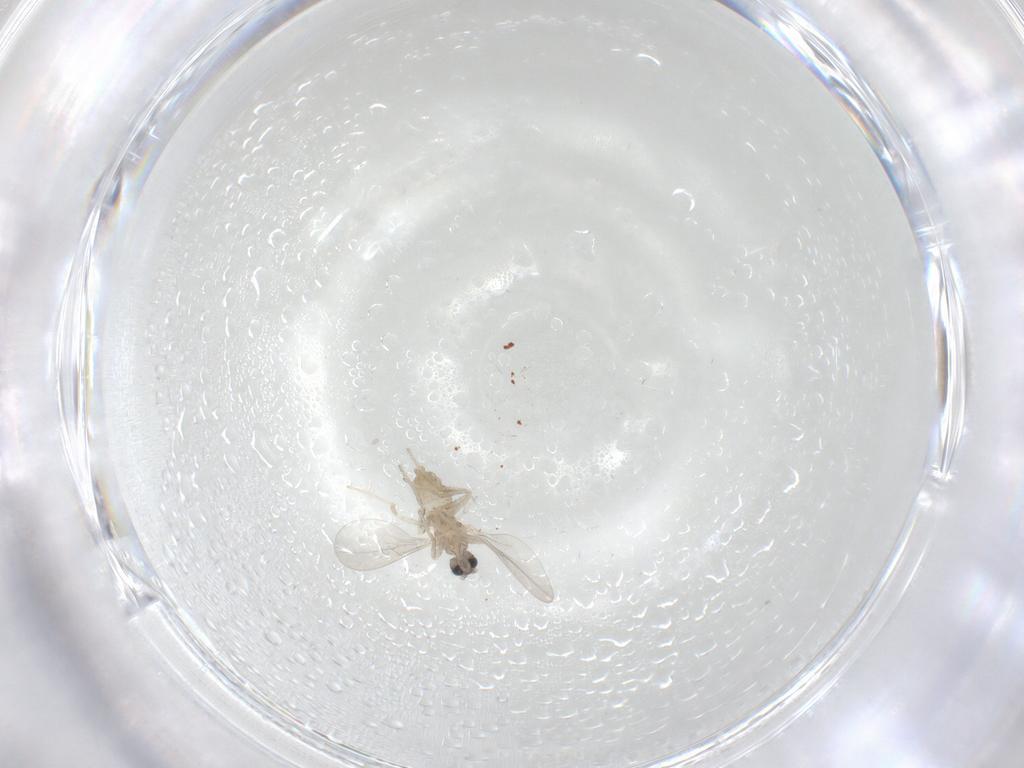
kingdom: Animalia
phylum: Arthropoda
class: Insecta
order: Diptera
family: Cecidomyiidae
